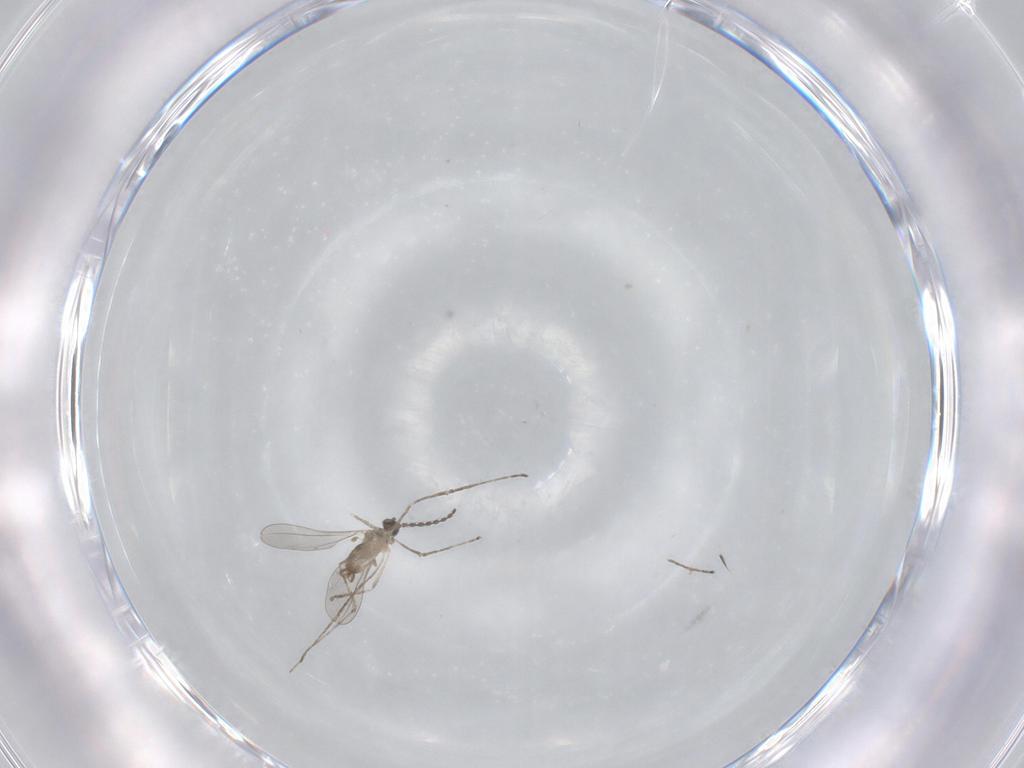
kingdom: Animalia
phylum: Arthropoda
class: Insecta
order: Diptera
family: Cecidomyiidae
